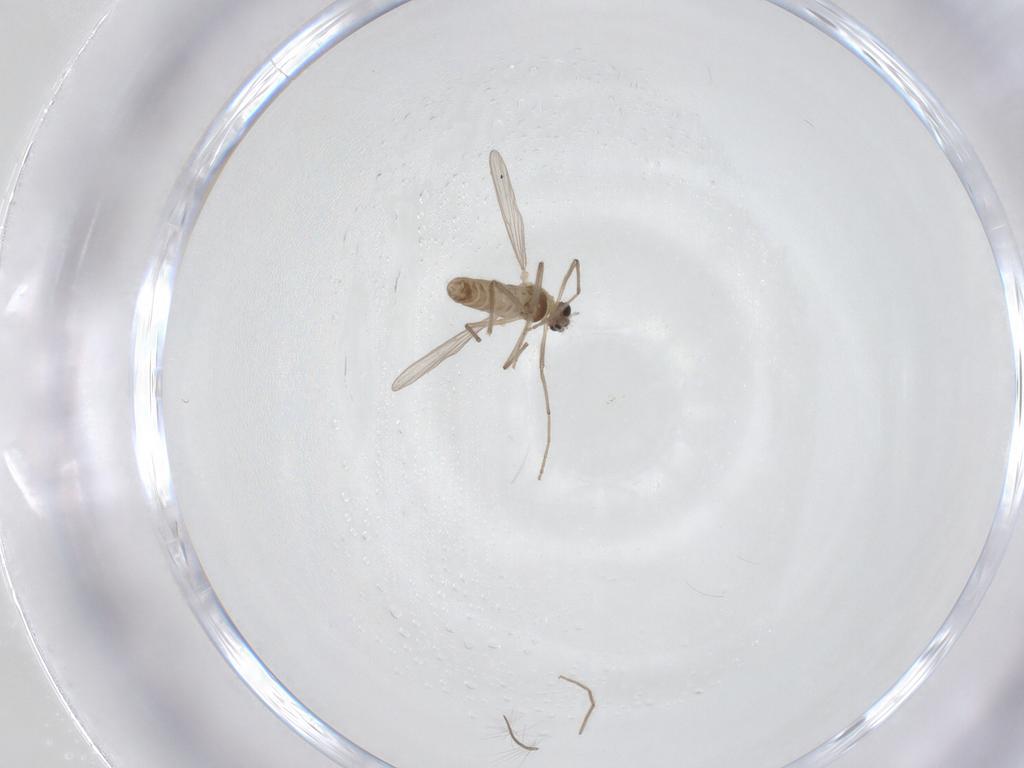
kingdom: Animalia
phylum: Arthropoda
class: Insecta
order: Diptera
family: Chironomidae
